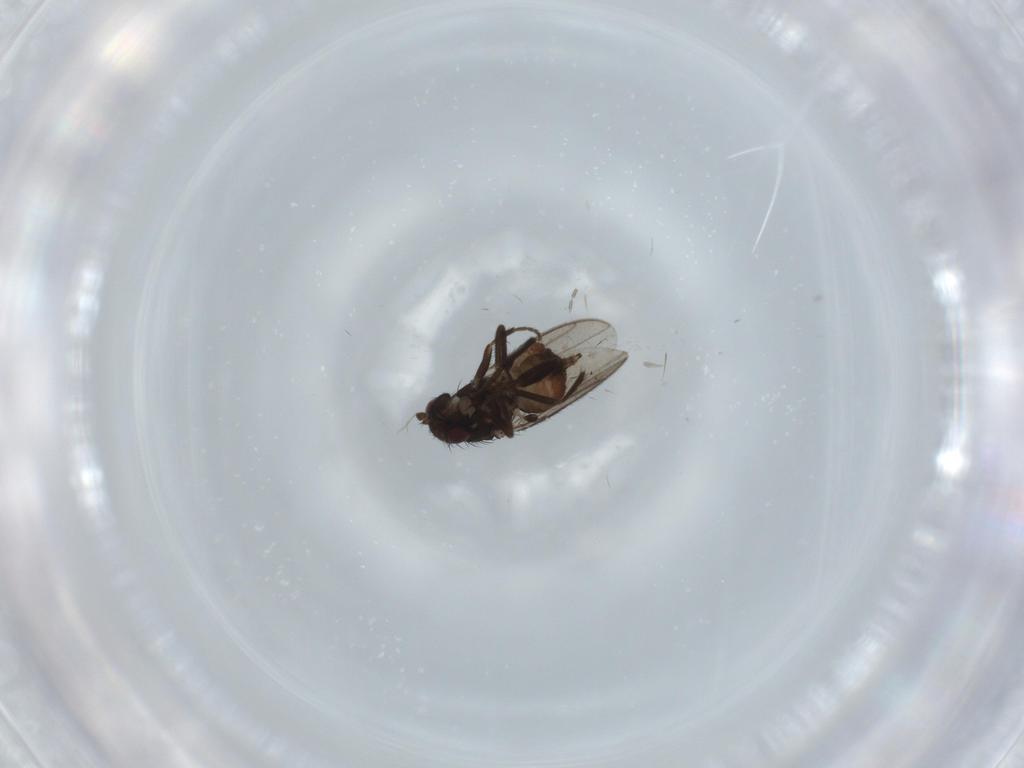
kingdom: Animalia
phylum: Arthropoda
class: Insecta
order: Diptera
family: Sphaeroceridae
